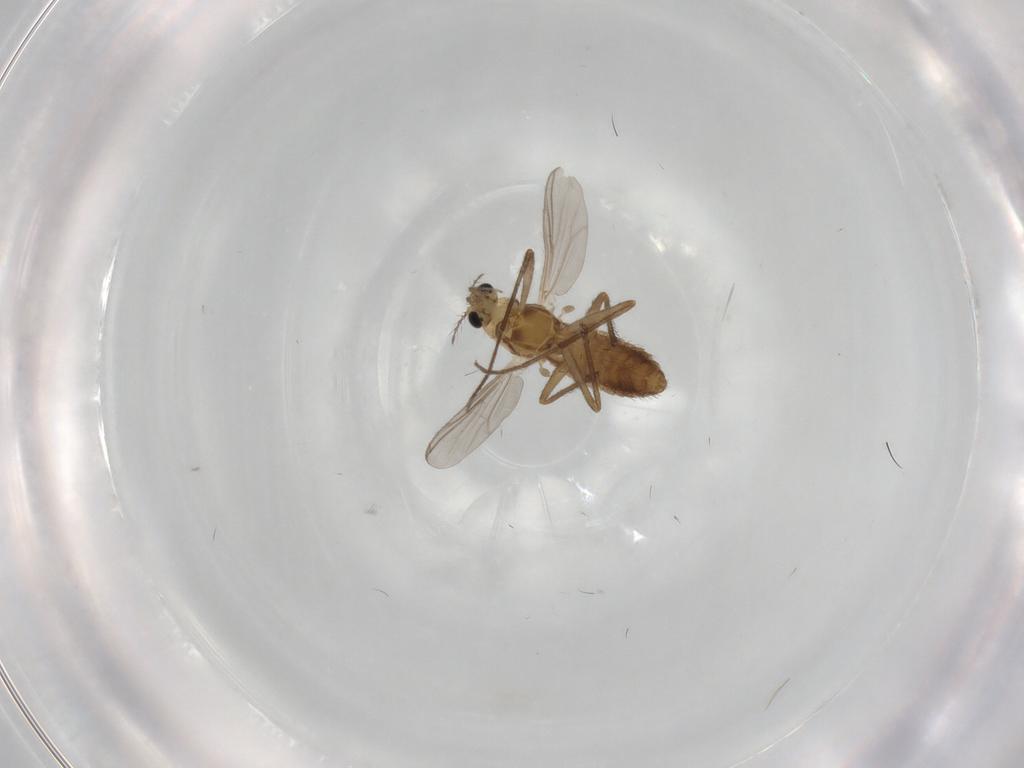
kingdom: Animalia
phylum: Arthropoda
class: Insecta
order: Diptera
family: Chironomidae
